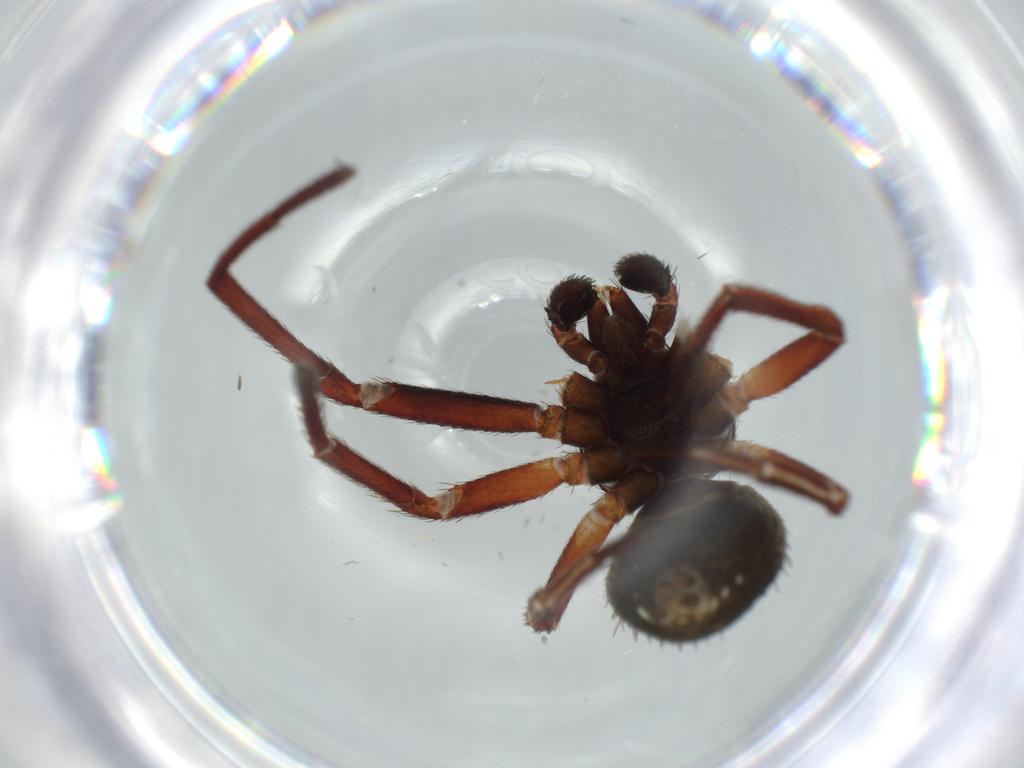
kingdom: Animalia
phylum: Arthropoda
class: Arachnida
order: Araneae
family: Thomisidae
